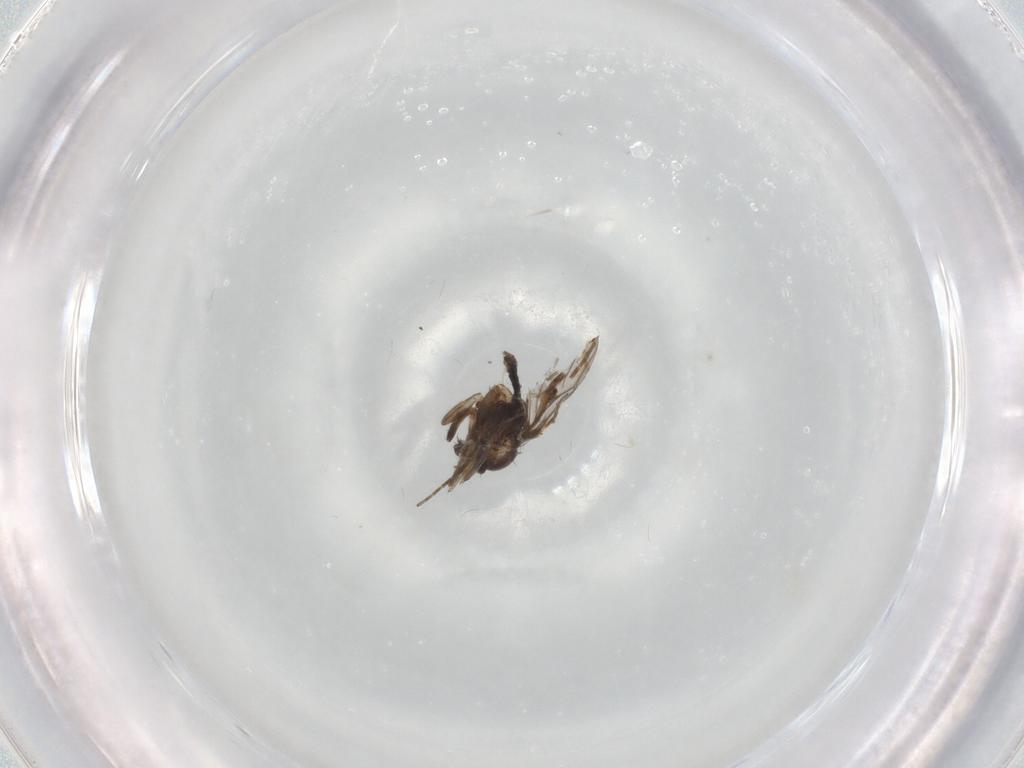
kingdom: Animalia
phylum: Arthropoda
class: Insecta
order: Diptera
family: Cecidomyiidae
